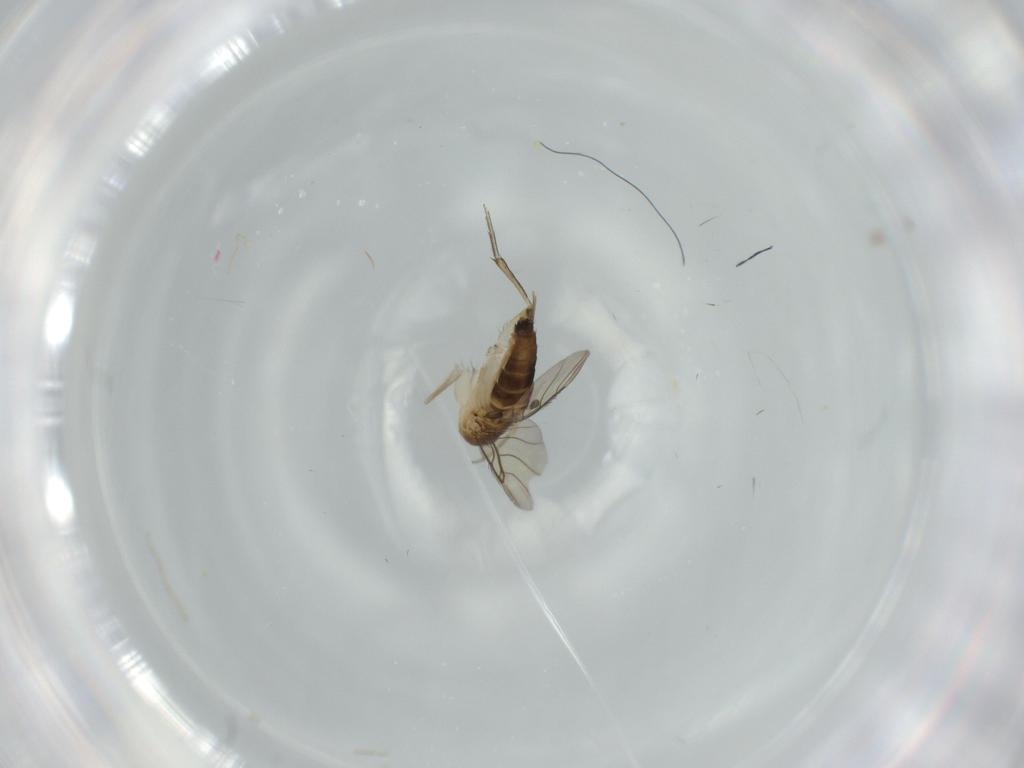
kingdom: Animalia
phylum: Arthropoda
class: Insecta
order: Diptera
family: Phoridae
